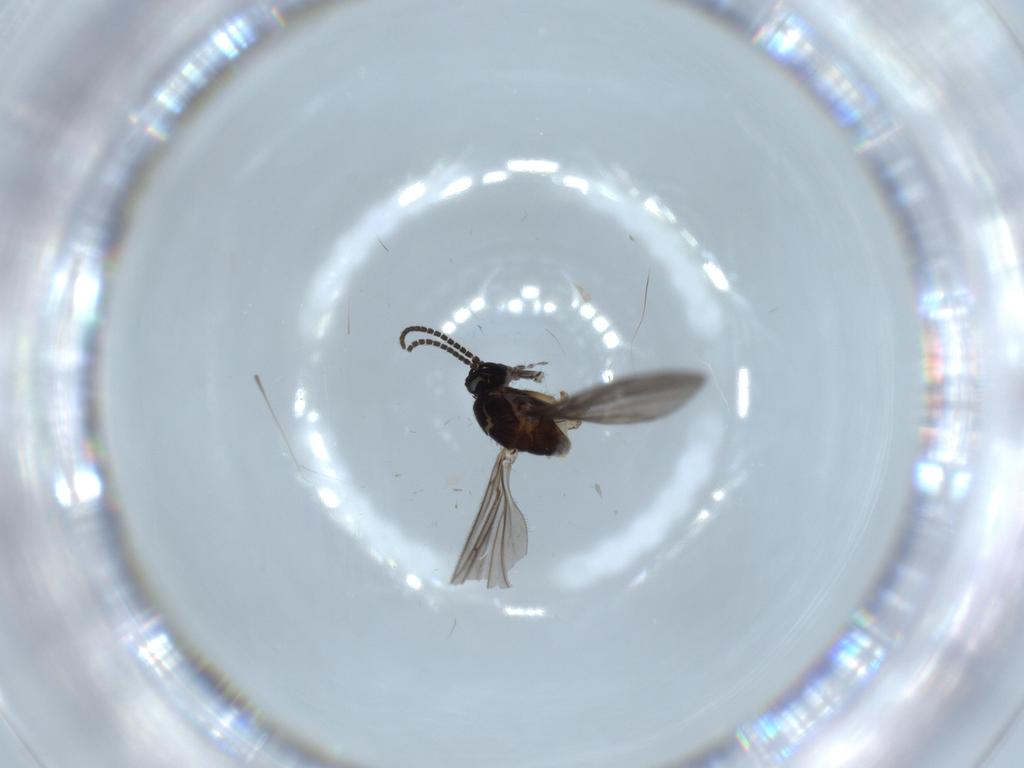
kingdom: Animalia
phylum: Arthropoda
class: Insecta
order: Diptera
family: Sciaridae
